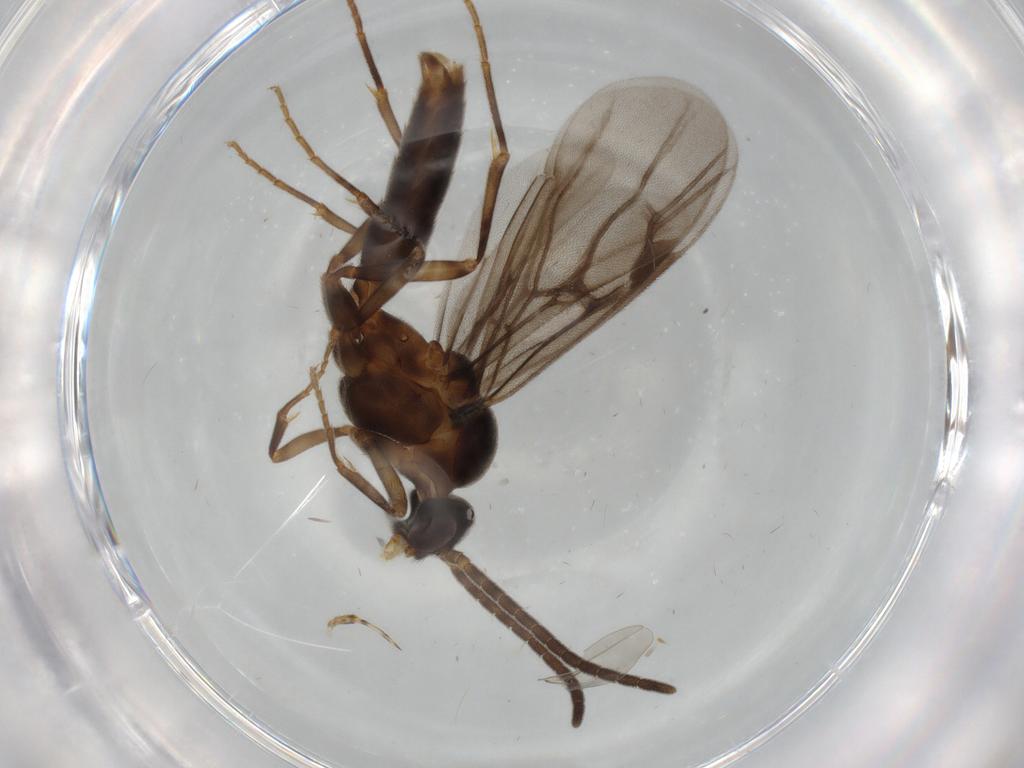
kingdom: Animalia
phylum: Arthropoda
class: Insecta
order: Hymenoptera
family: Formicidae
